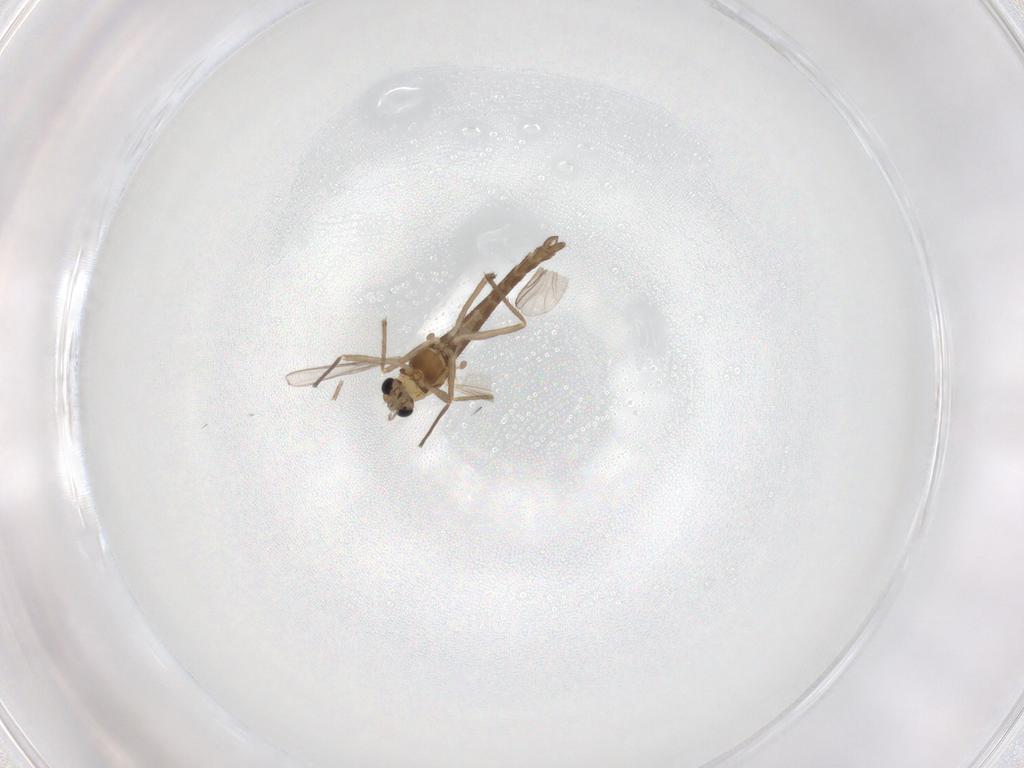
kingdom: Animalia
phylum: Arthropoda
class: Insecta
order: Diptera
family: Chironomidae
